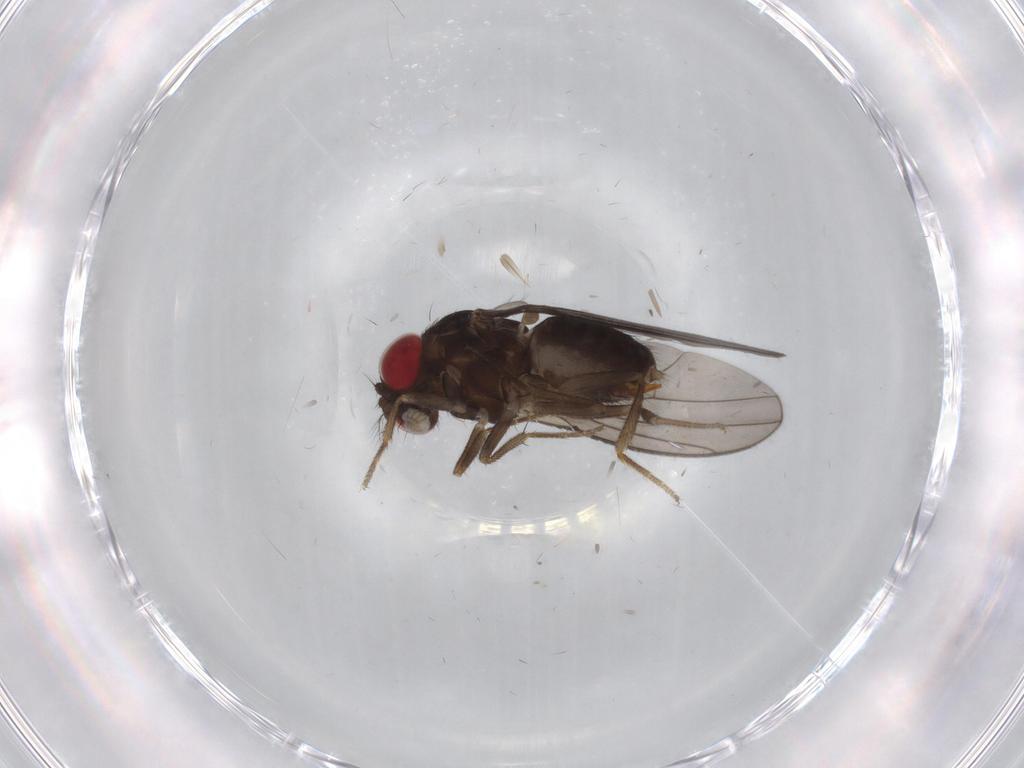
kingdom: Animalia
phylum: Arthropoda
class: Insecta
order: Diptera
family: Drosophilidae
